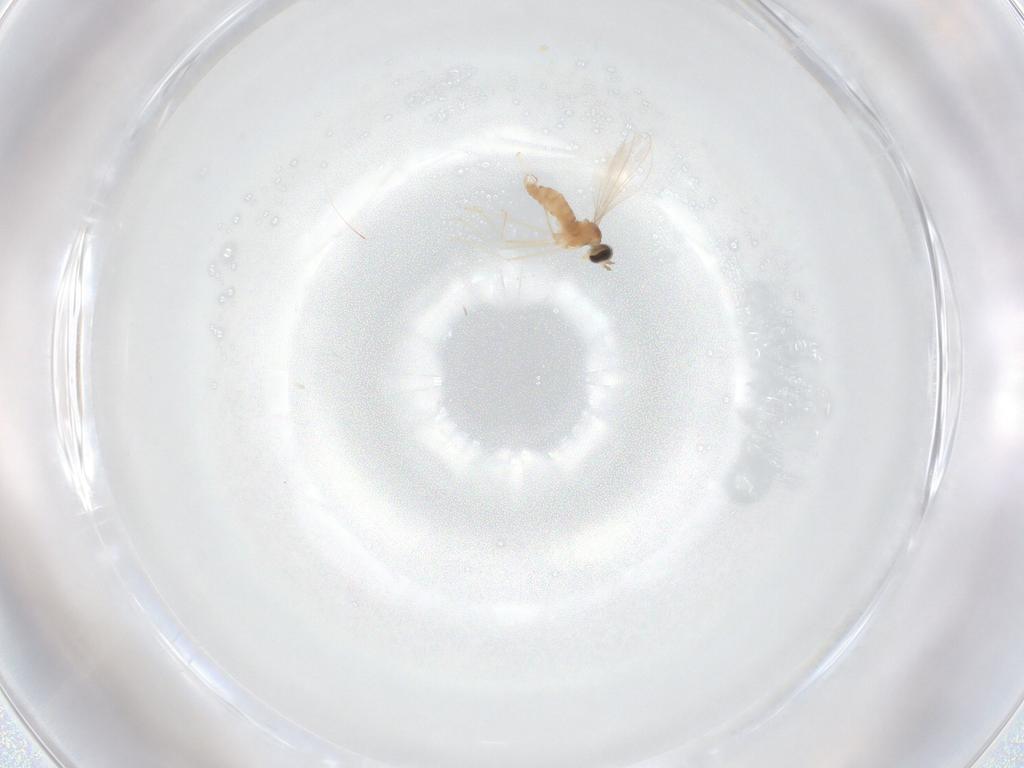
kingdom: Animalia
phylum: Arthropoda
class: Insecta
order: Diptera
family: Cecidomyiidae
